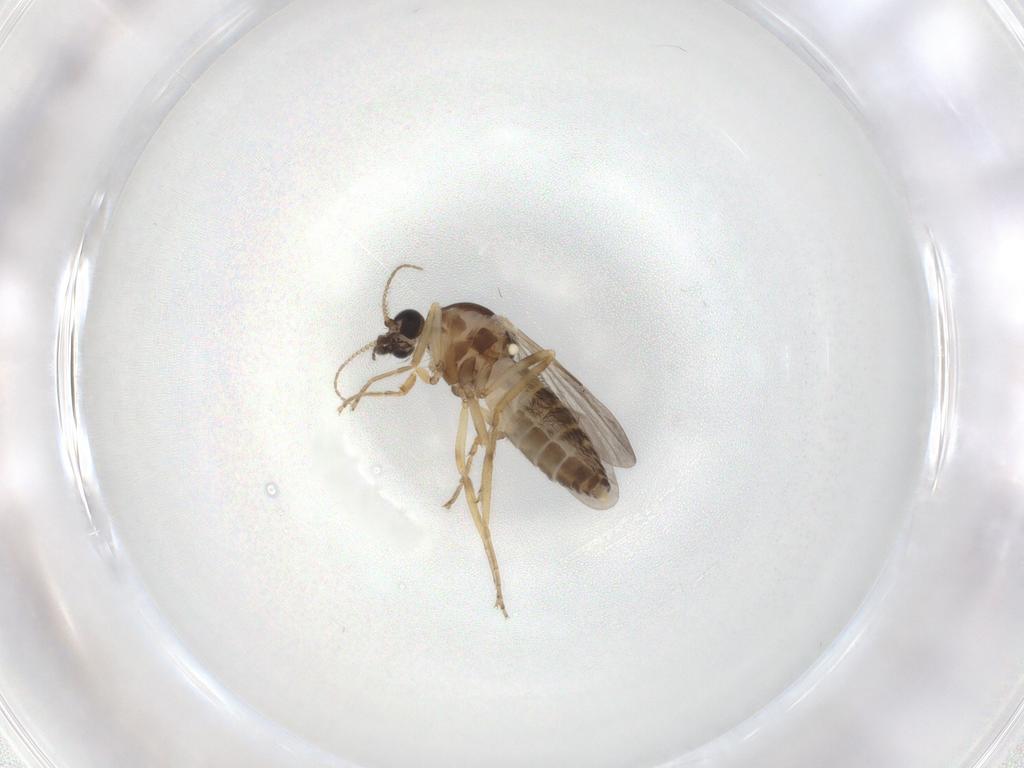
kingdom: Animalia
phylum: Arthropoda
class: Insecta
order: Diptera
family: Ceratopogonidae
